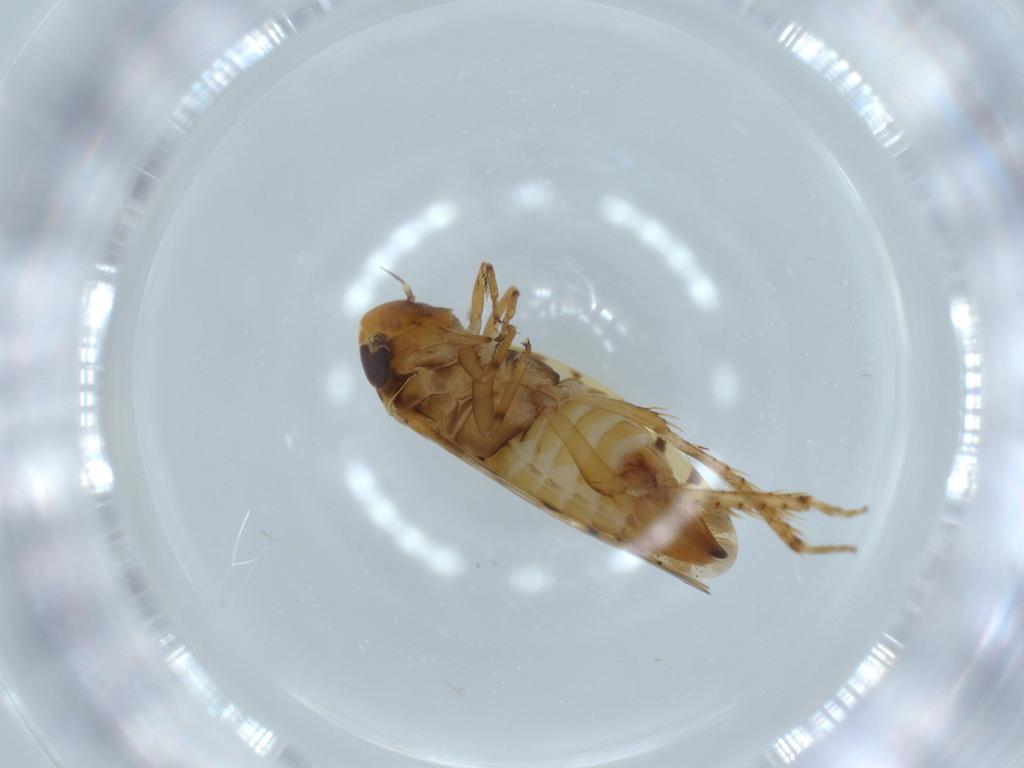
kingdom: Animalia
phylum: Arthropoda
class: Insecta
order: Hemiptera
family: Cicadellidae
